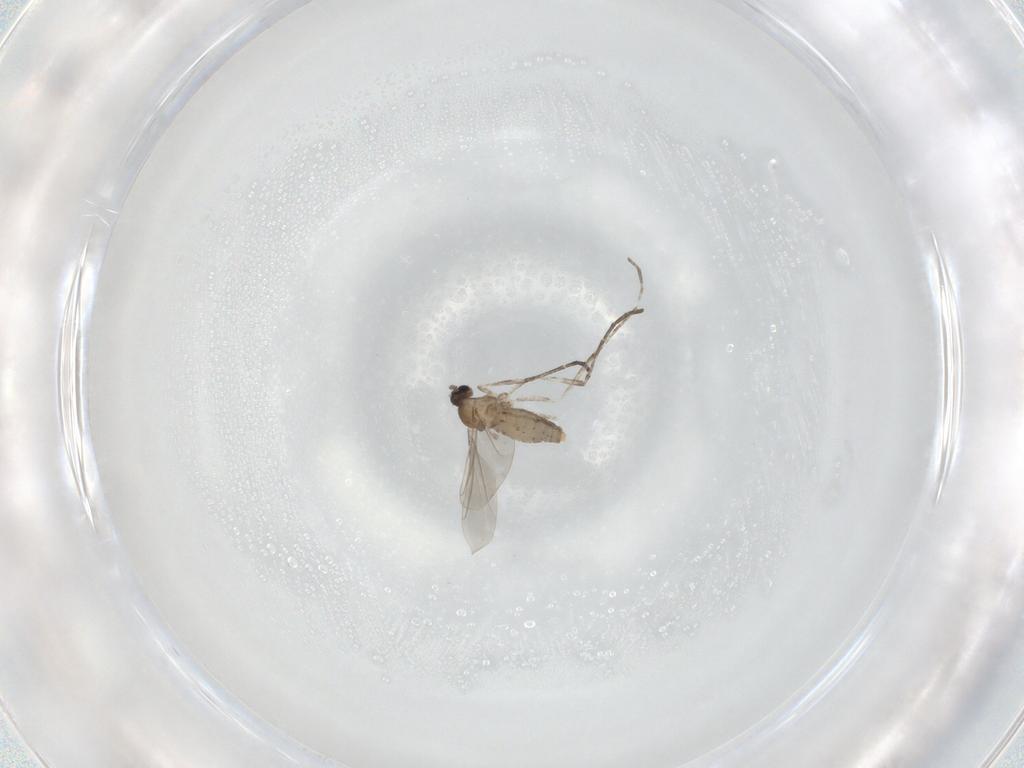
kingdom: Animalia
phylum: Arthropoda
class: Insecta
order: Diptera
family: Cecidomyiidae
